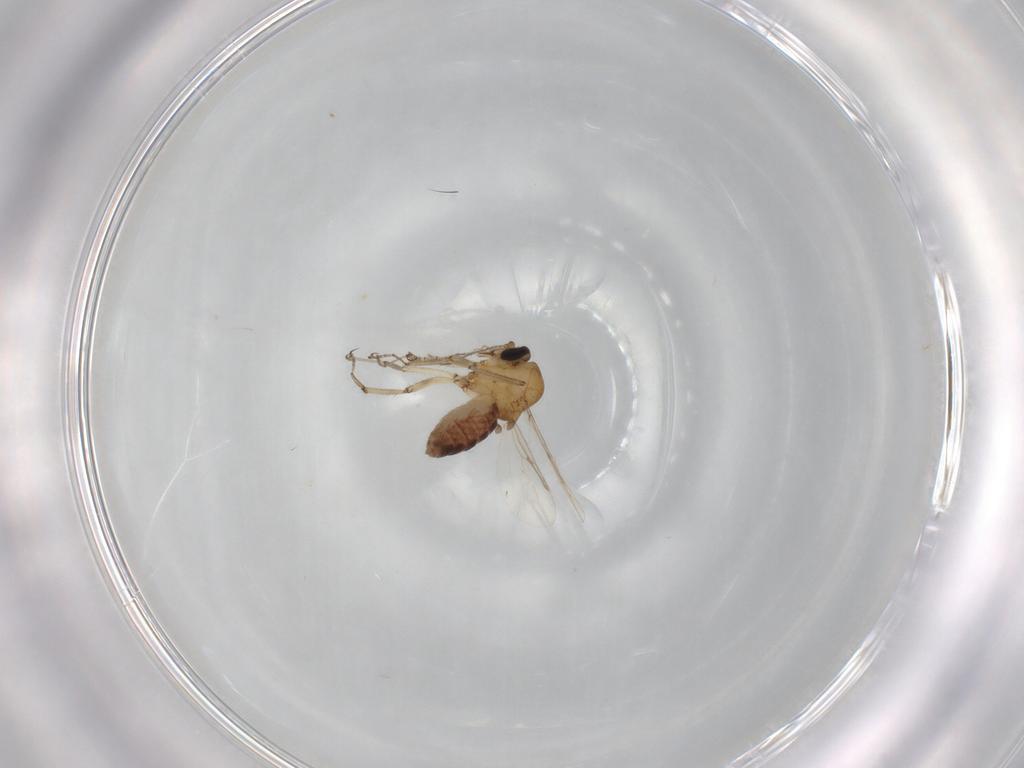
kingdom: Animalia
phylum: Arthropoda
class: Insecta
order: Diptera
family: Ceratopogonidae
